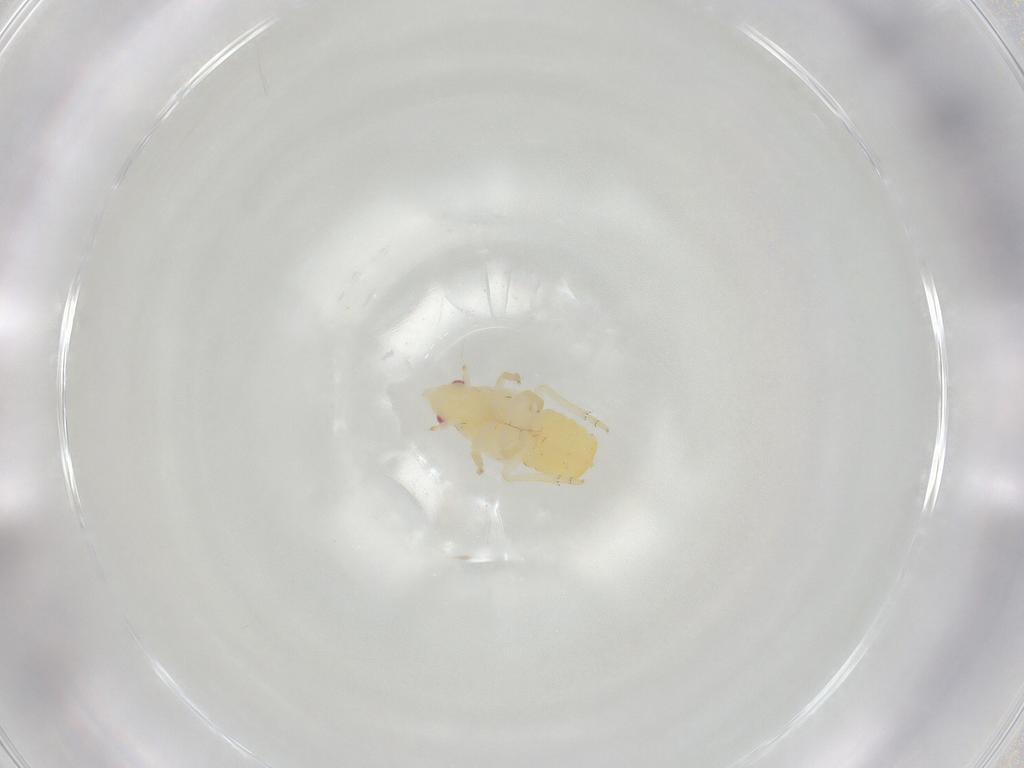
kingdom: Animalia
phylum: Arthropoda
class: Insecta
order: Hemiptera
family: Fulgoroidea_incertae_sedis
